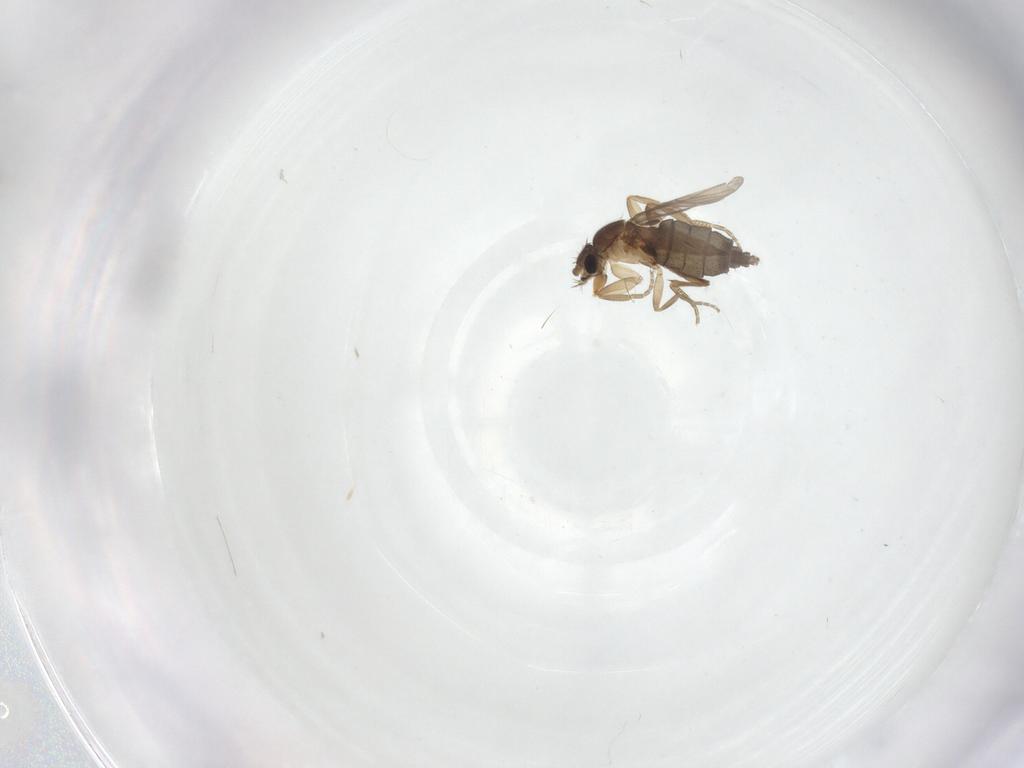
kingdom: Animalia
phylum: Arthropoda
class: Insecta
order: Diptera
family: Phoridae
